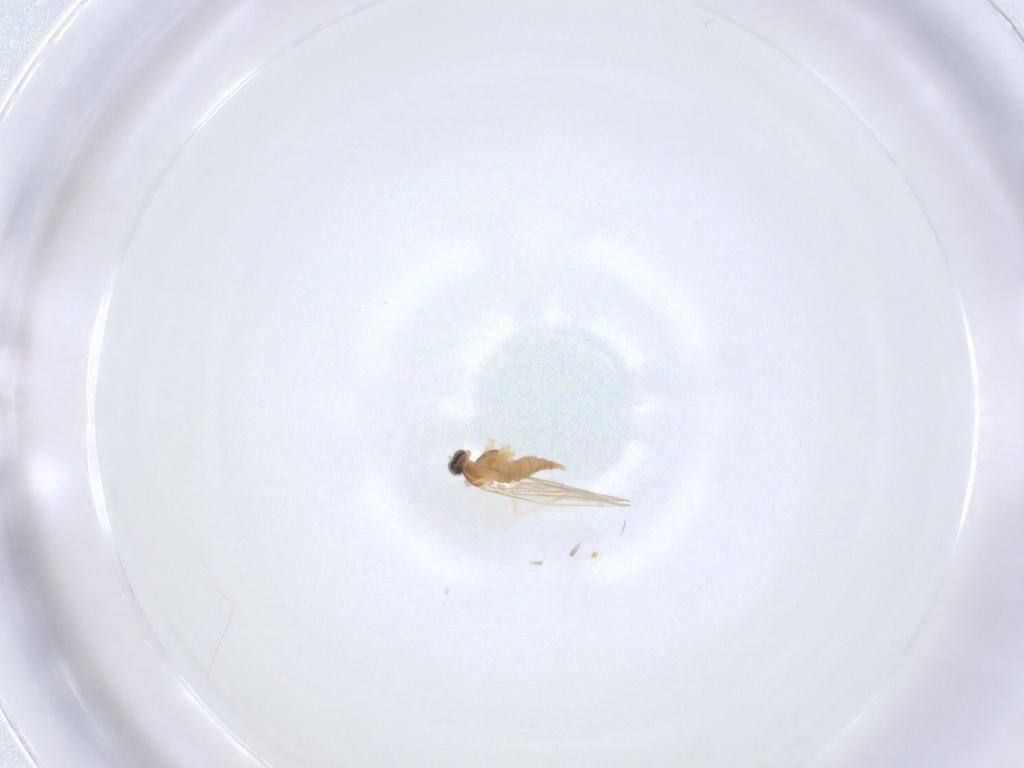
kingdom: Animalia
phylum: Arthropoda
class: Insecta
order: Diptera
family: Cecidomyiidae
